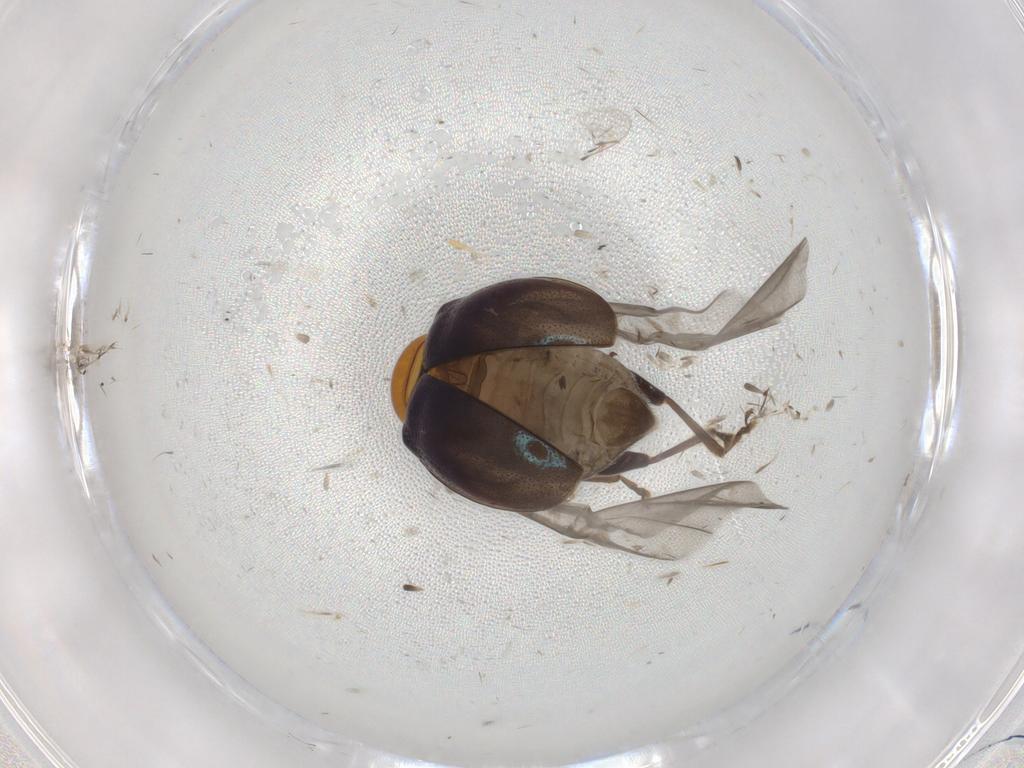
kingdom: Animalia
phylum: Arthropoda
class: Insecta
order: Coleoptera
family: Chrysomelidae
